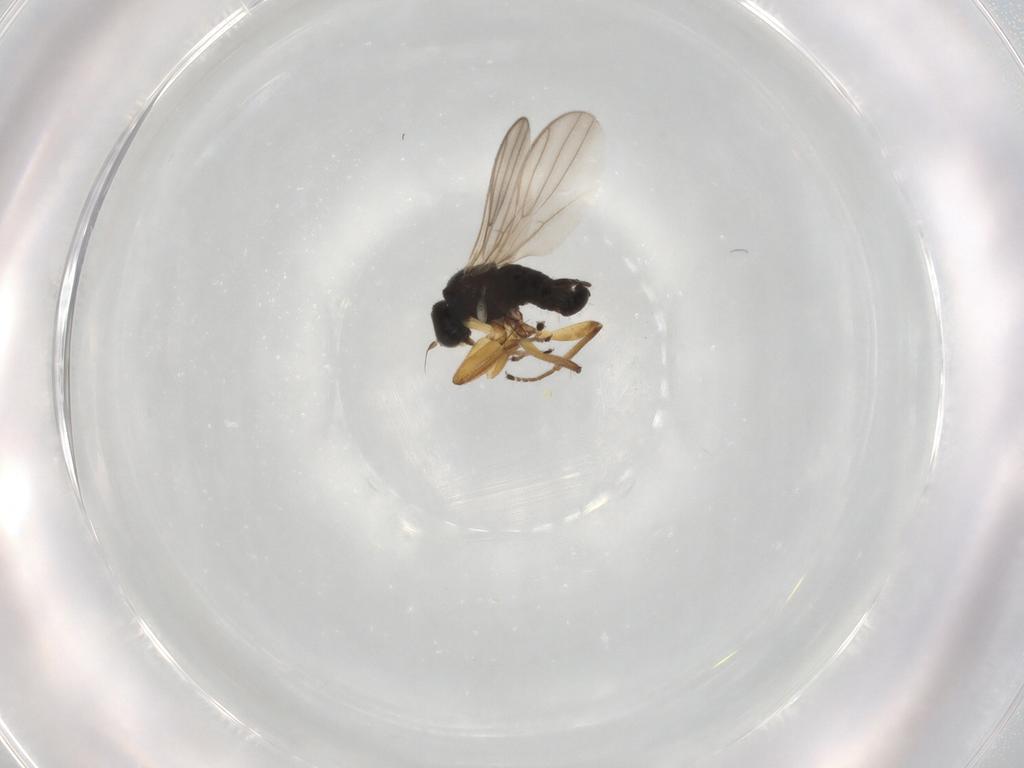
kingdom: Animalia
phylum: Arthropoda
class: Insecta
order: Diptera
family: Hybotidae
